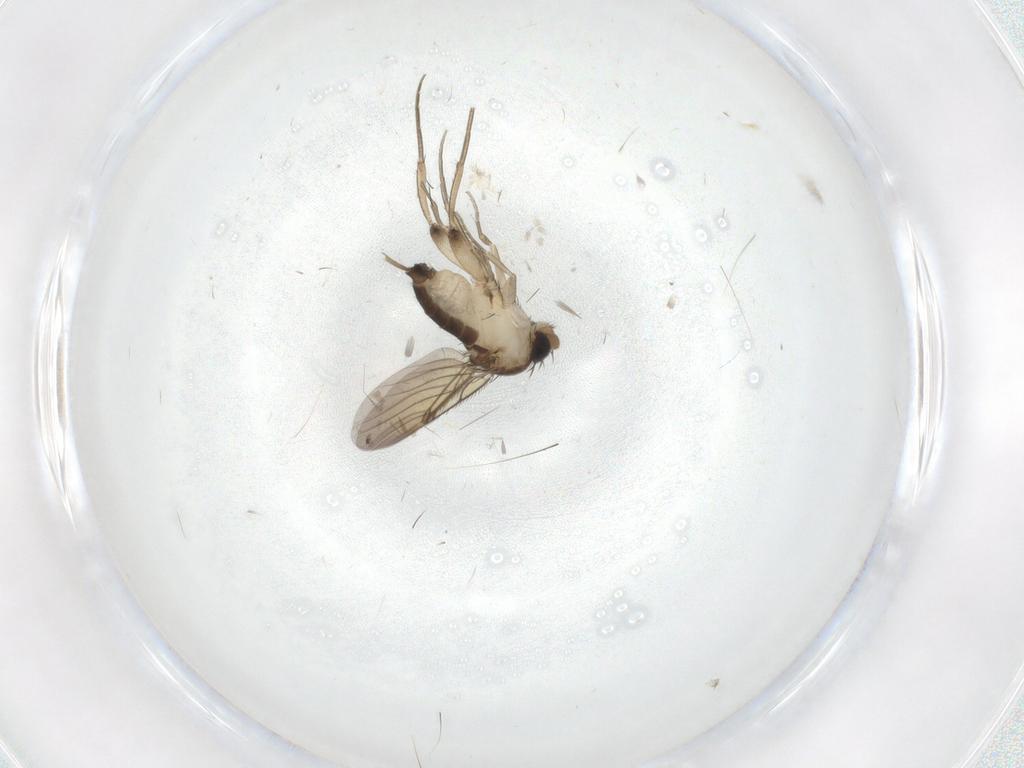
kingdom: Animalia
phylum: Arthropoda
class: Insecta
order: Diptera
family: Phoridae
